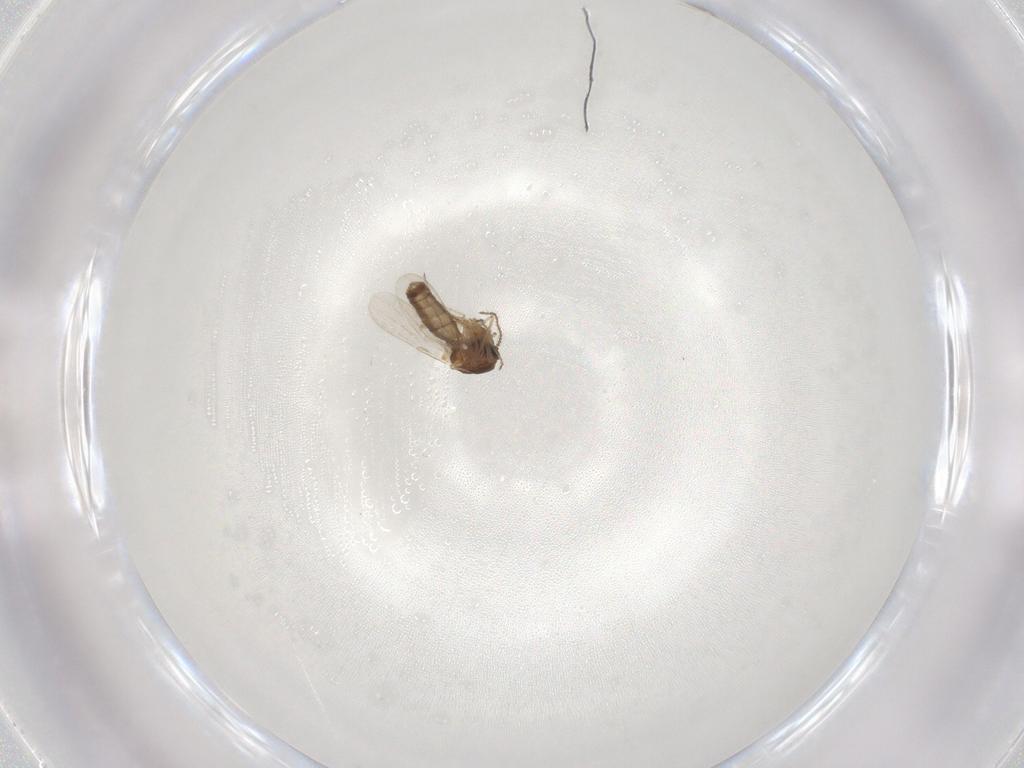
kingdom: Animalia
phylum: Arthropoda
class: Insecta
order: Diptera
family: Ceratopogonidae
